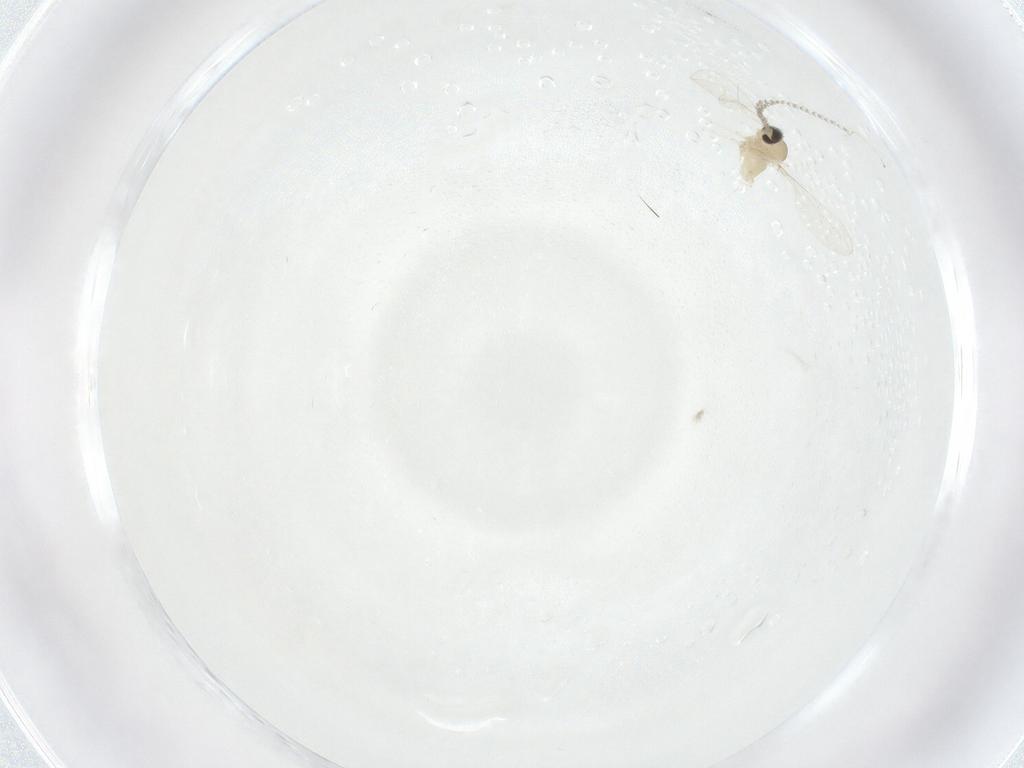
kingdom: Animalia
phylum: Arthropoda
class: Insecta
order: Diptera
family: Cecidomyiidae
